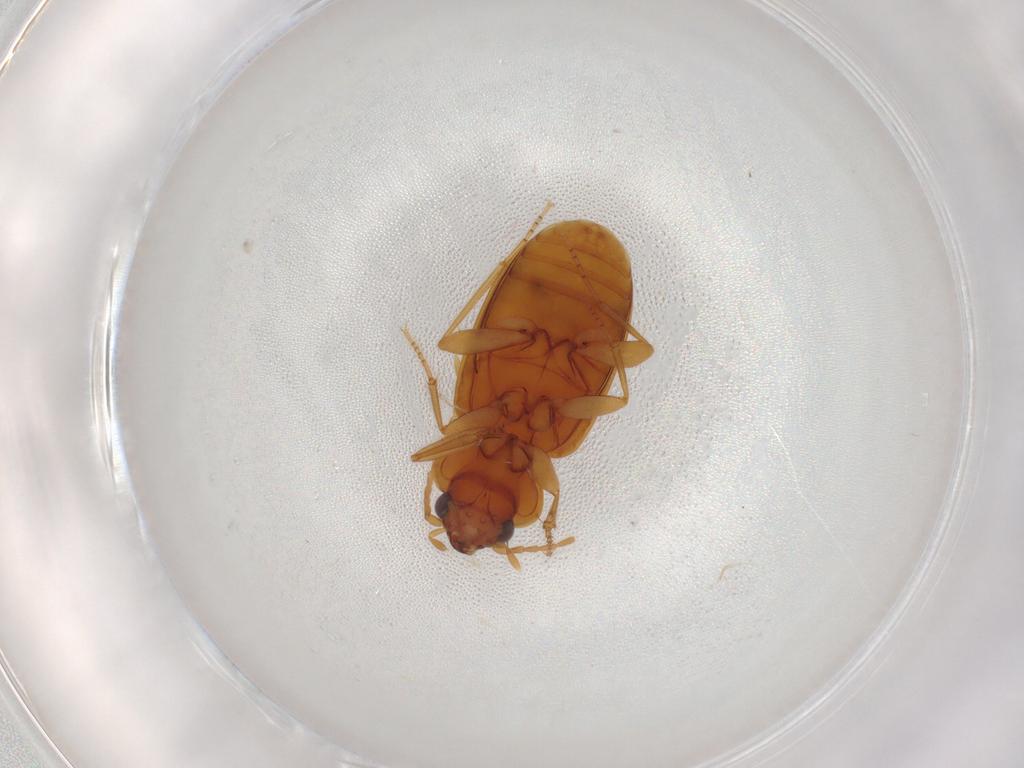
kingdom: Animalia
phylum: Arthropoda
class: Insecta
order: Coleoptera
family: Carabidae
